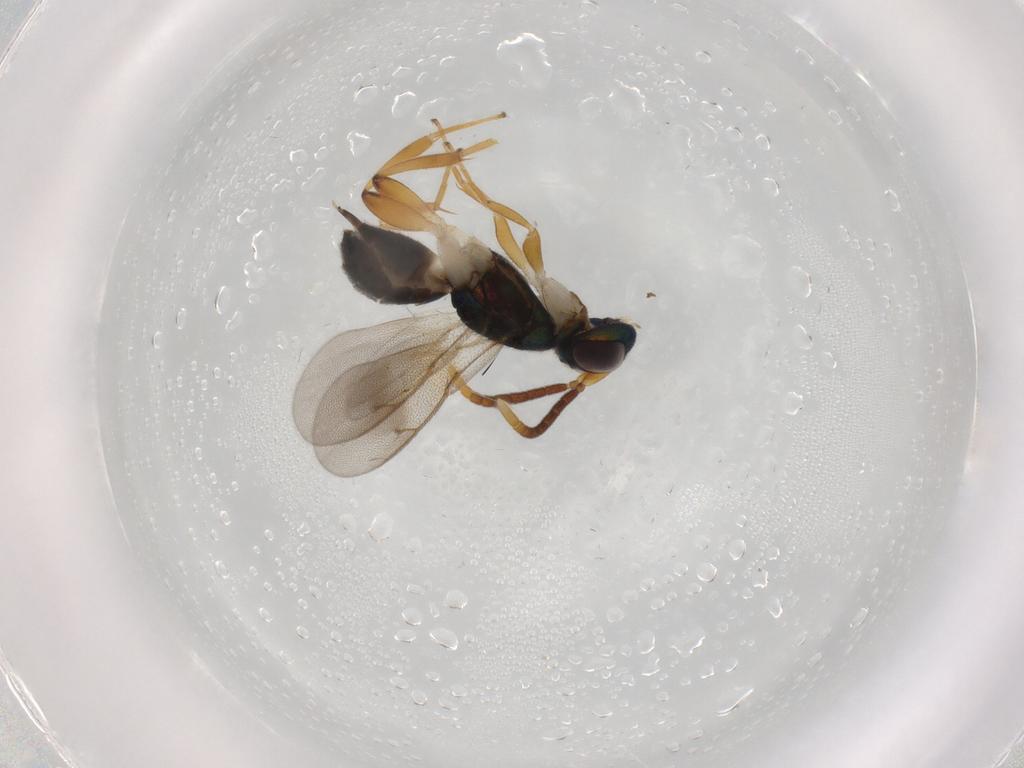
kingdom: Animalia
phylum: Arthropoda
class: Insecta
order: Hymenoptera
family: Eupelmidae
